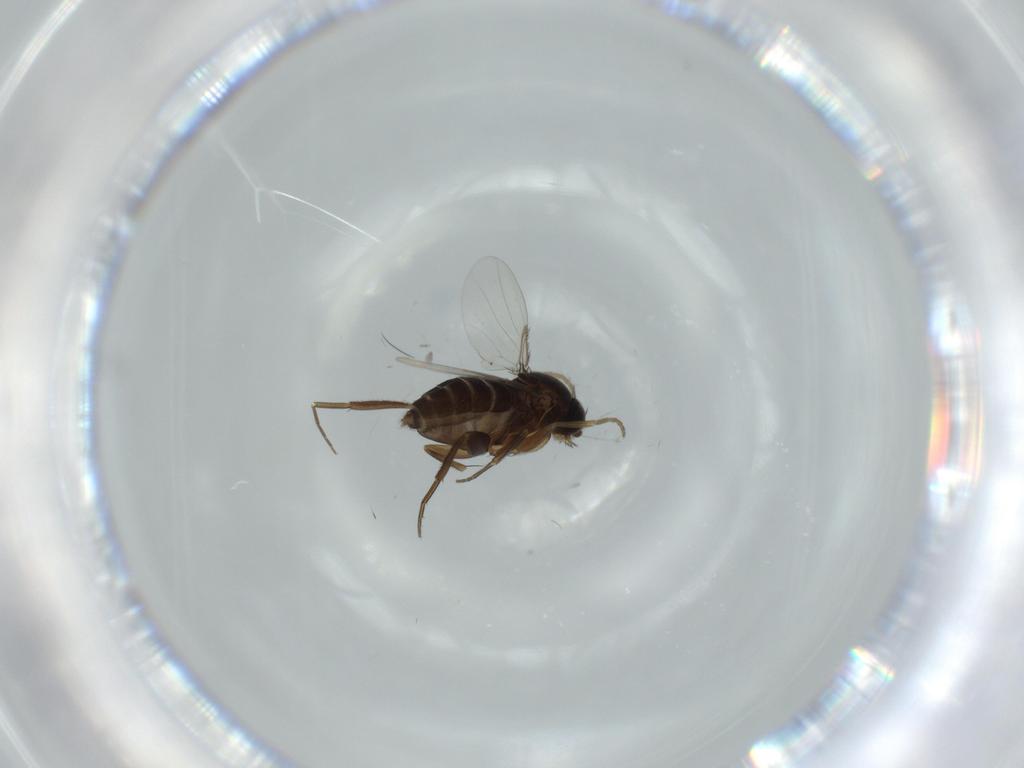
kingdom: Animalia
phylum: Arthropoda
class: Insecta
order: Diptera
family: Phoridae
